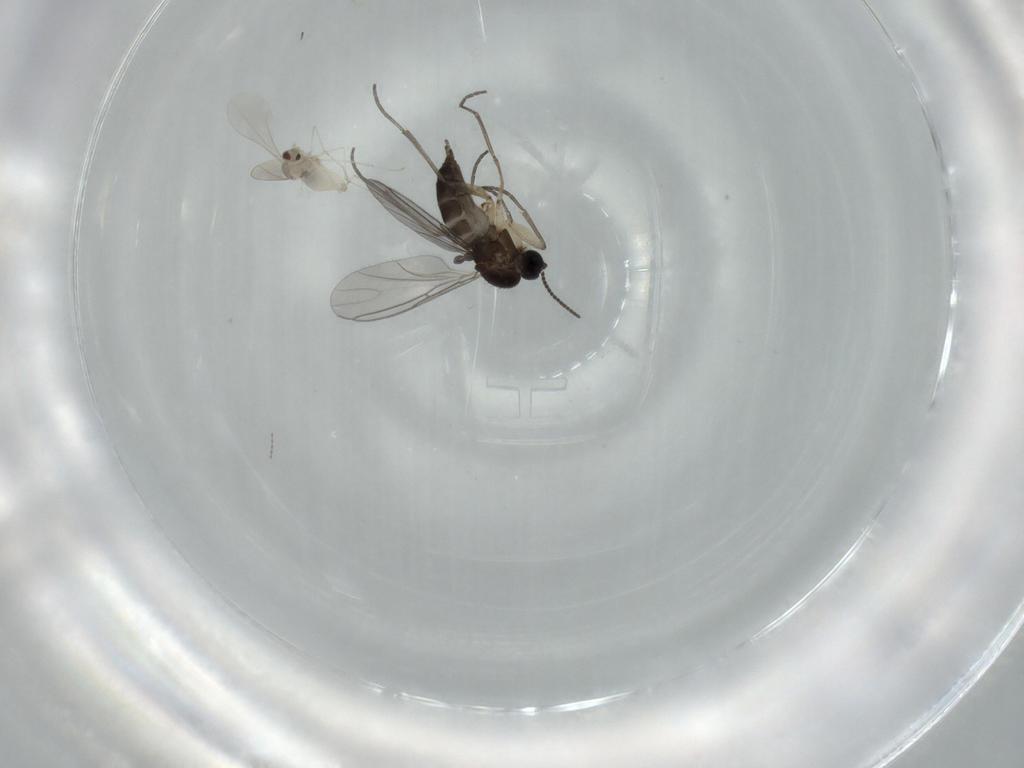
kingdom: Animalia
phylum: Arthropoda
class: Insecta
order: Diptera
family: Sciaridae
